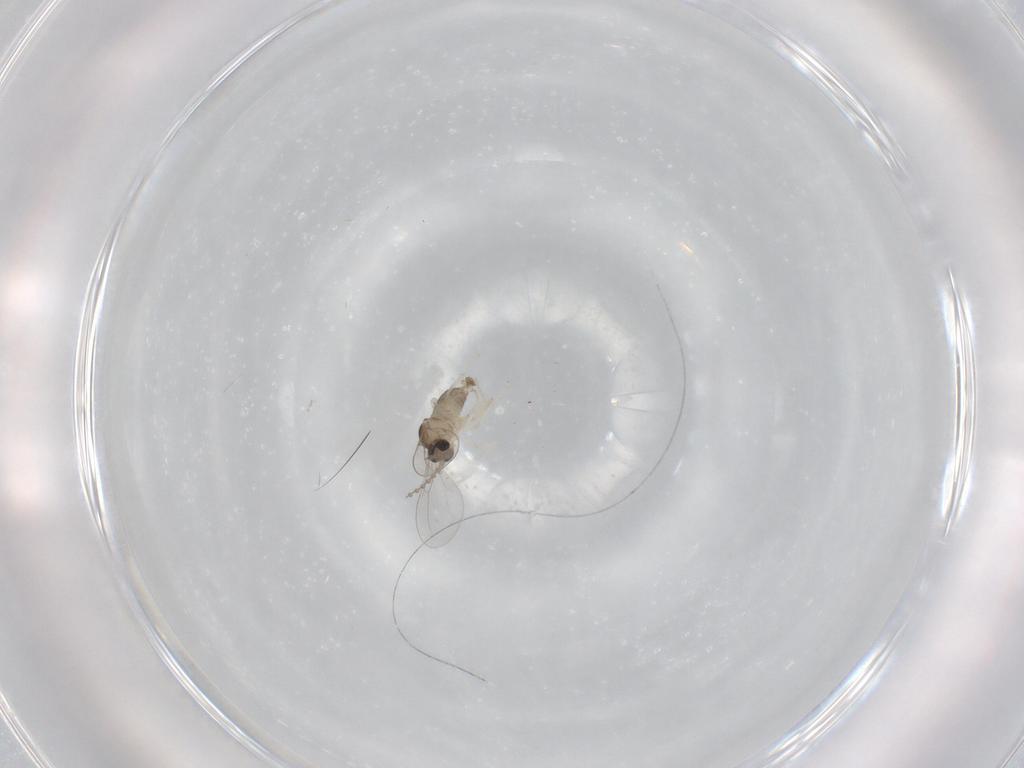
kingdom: Animalia
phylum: Arthropoda
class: Insecta
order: Diptera
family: Cecidomyiidae
